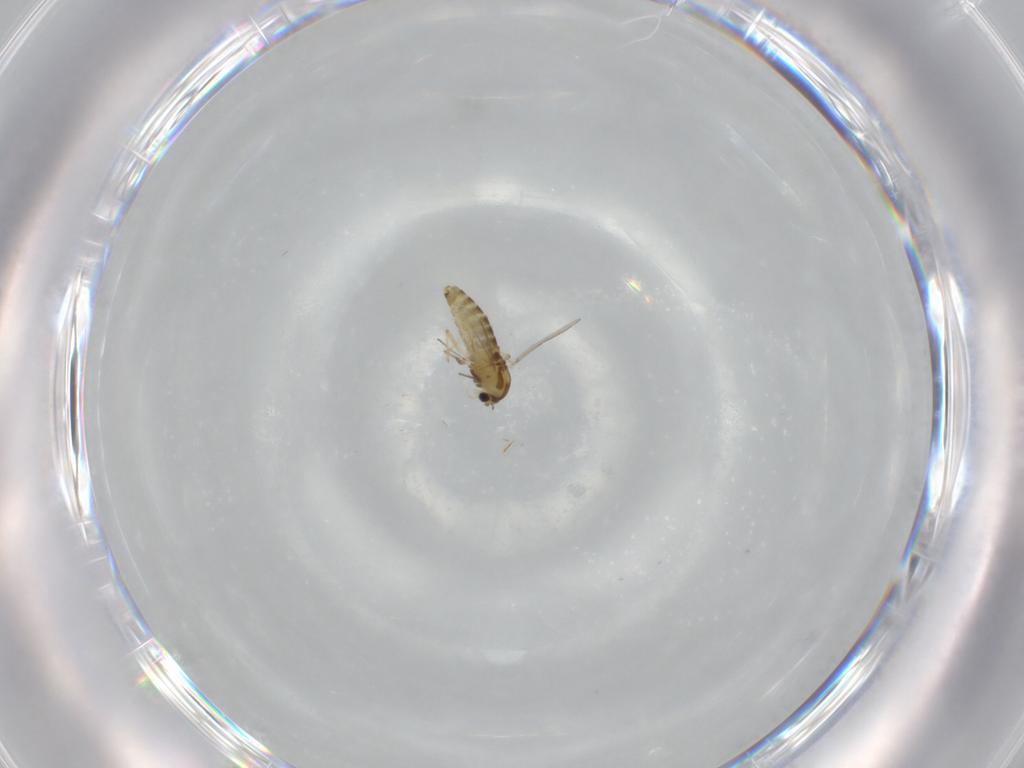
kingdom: Animalia
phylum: Arthropoda
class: Insecta
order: Diptera
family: Chironomidae
